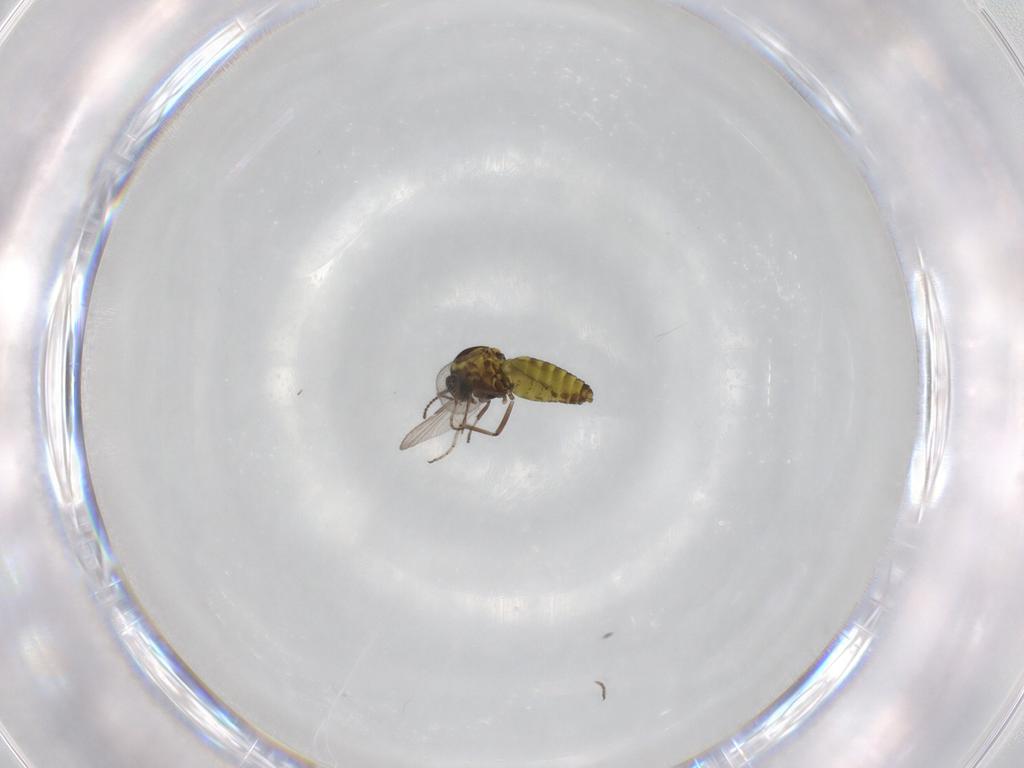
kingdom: Animalia
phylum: Arthropoda
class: Insecta
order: Diptera
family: Ceratopogonidae
